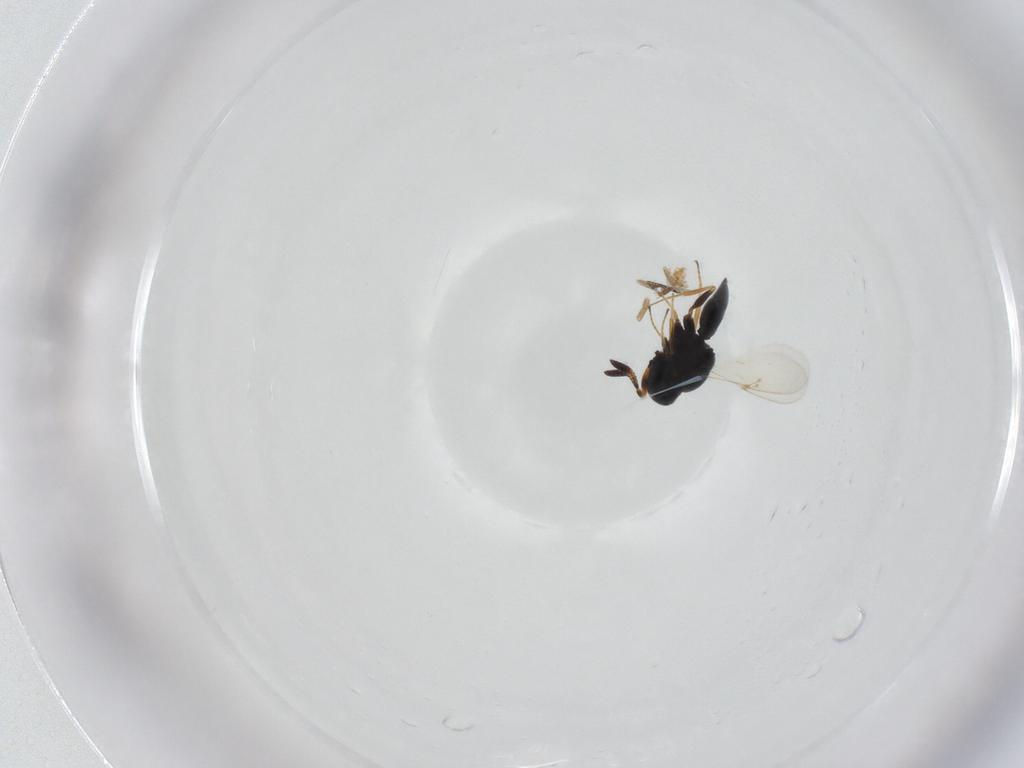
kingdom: Animalia
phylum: Arthropoda
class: Insecta
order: Hymenoptera
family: Scelionidae
